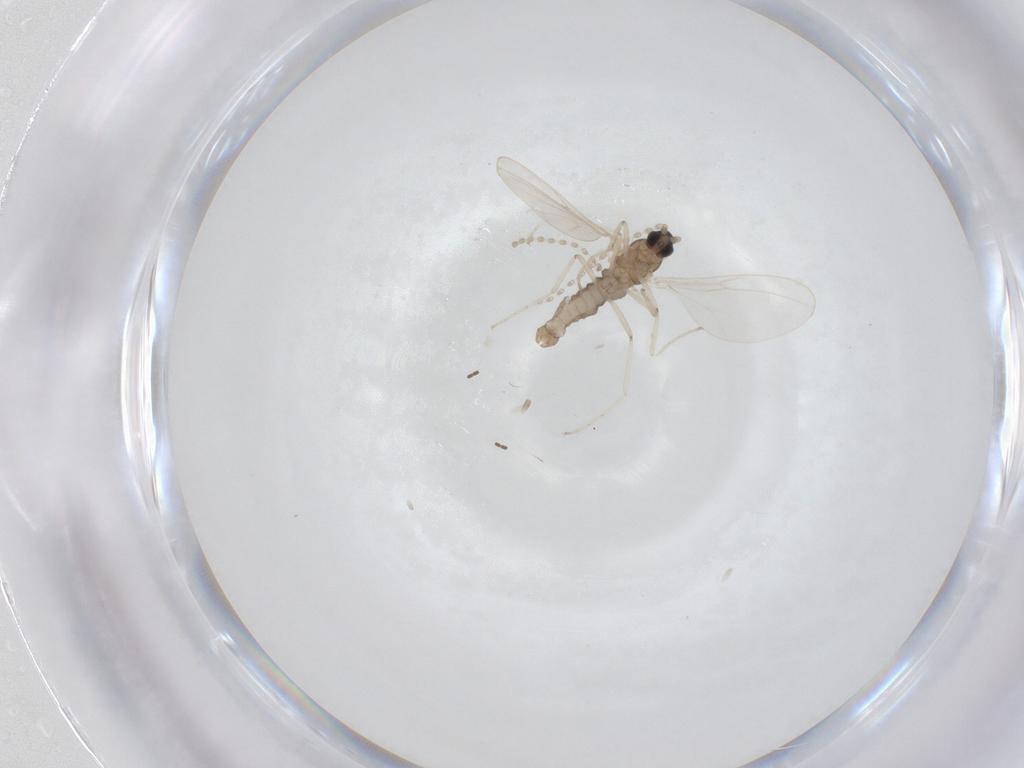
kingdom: Animalia
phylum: Arthropoda
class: Insecta
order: Diptera
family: Cecidomyiidae
